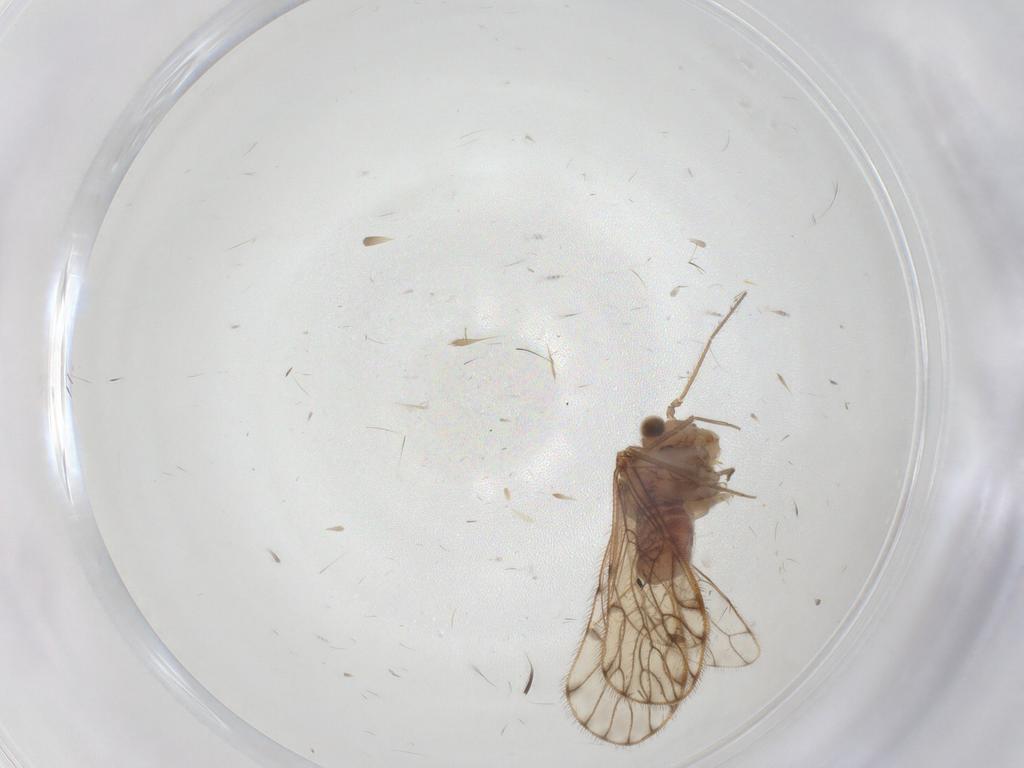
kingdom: Animalia
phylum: Arthropoda
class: Insecta
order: Psocodea
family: Epipsocidae
